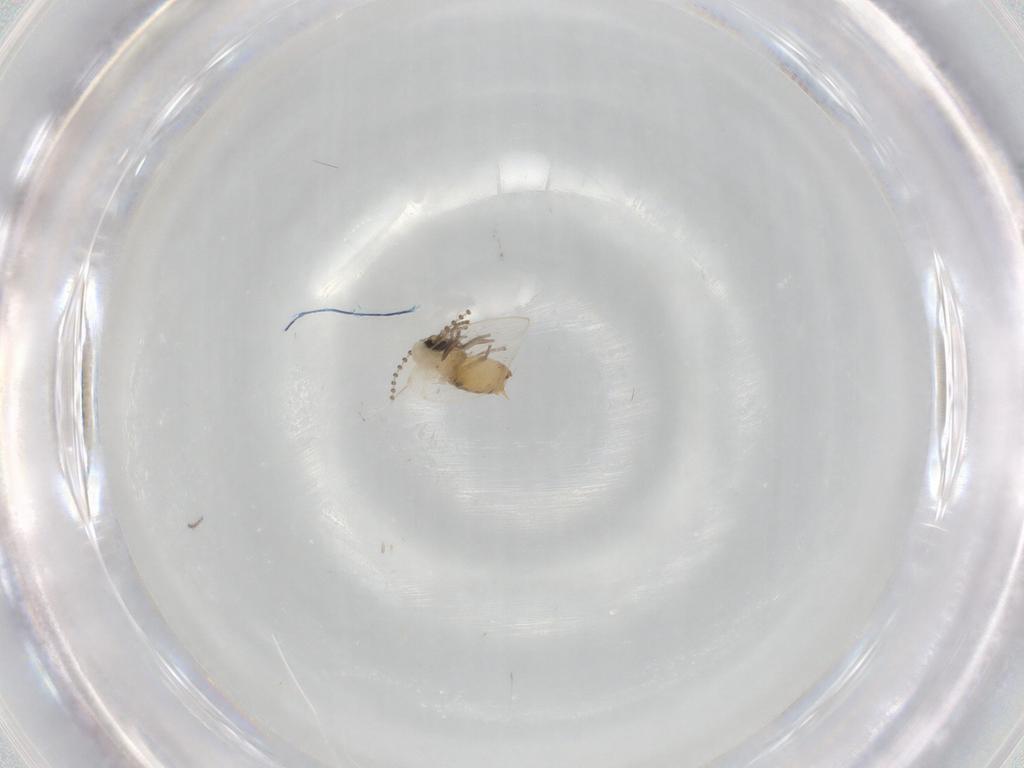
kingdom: Animalia
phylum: Arthropoda
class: Insecta
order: Diptera
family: Psychodidae
